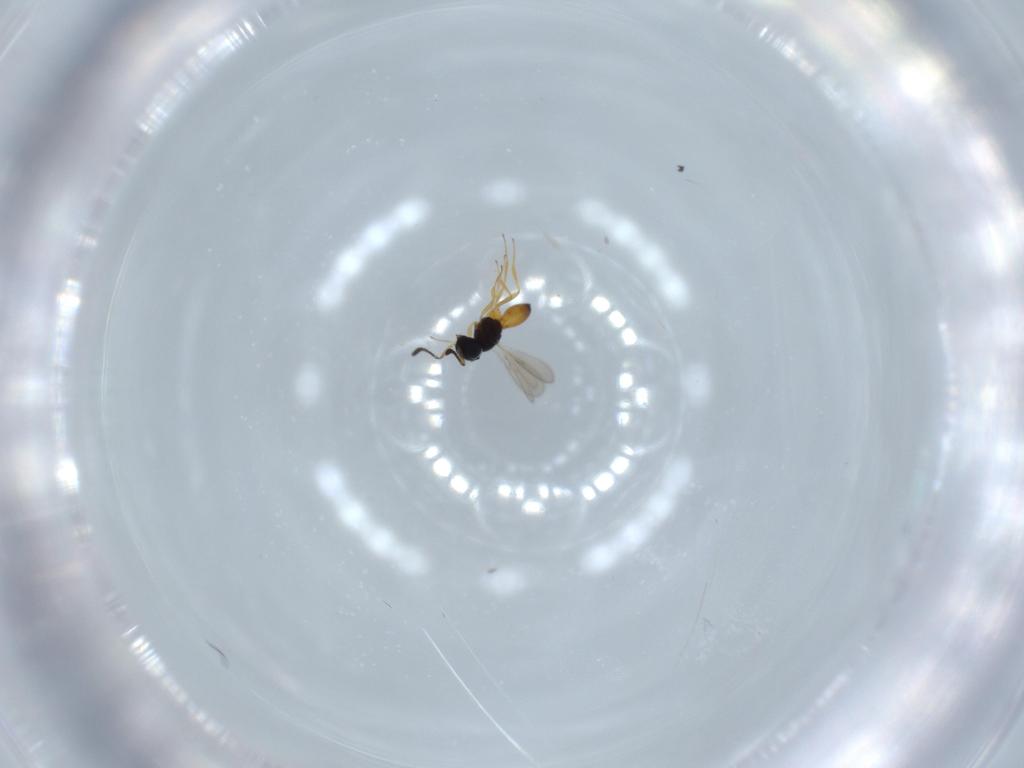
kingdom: Animalia
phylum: Arthropoda
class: Insecta
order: Hymenoptera
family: Scelionidae
